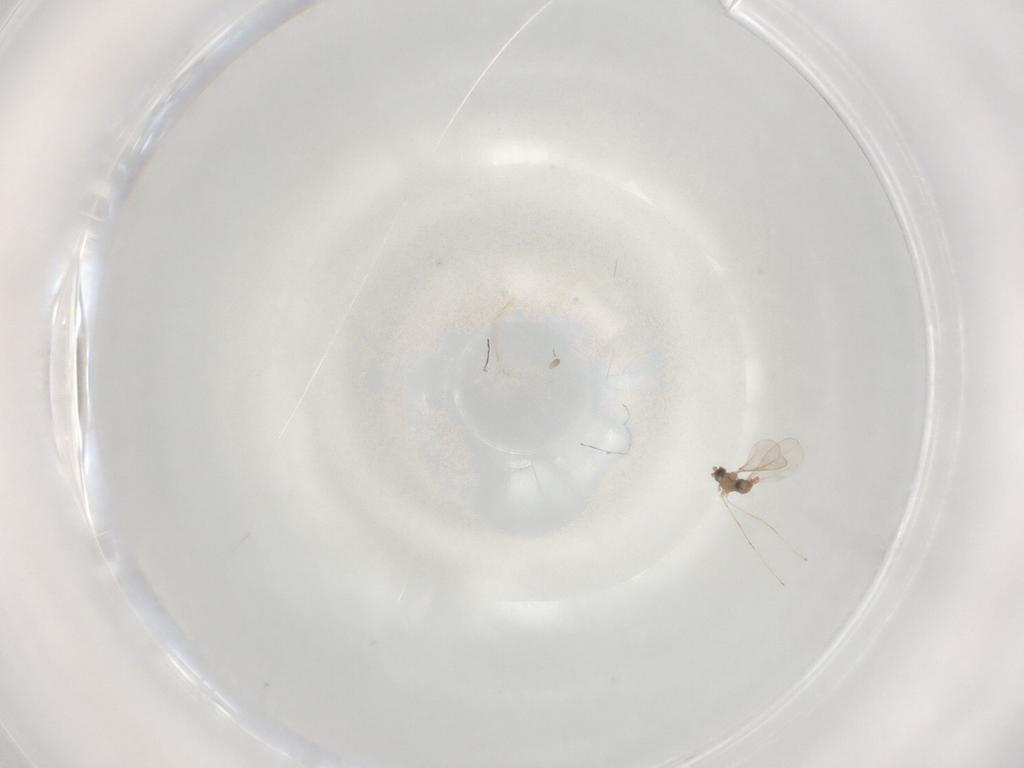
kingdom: Animalia
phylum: Arthropoda
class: Insecta
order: Diptera
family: Cecidomyiidae
